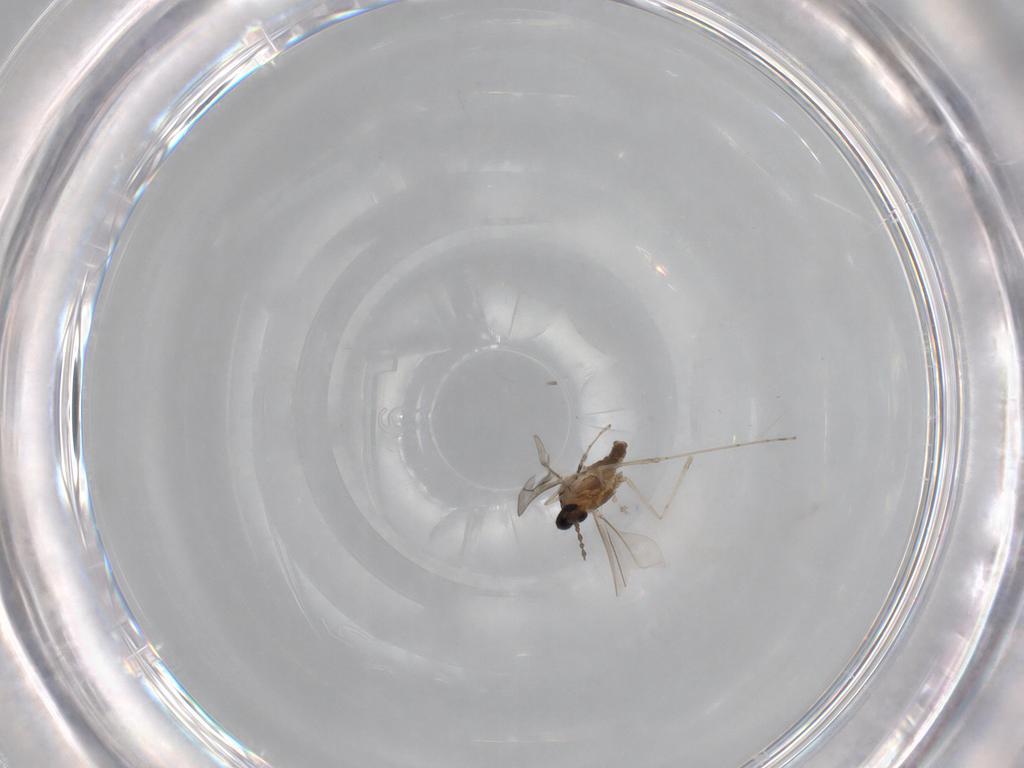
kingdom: Animalia
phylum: Arthropoda
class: Insecta
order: Diptera
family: Cecidomyiidae
